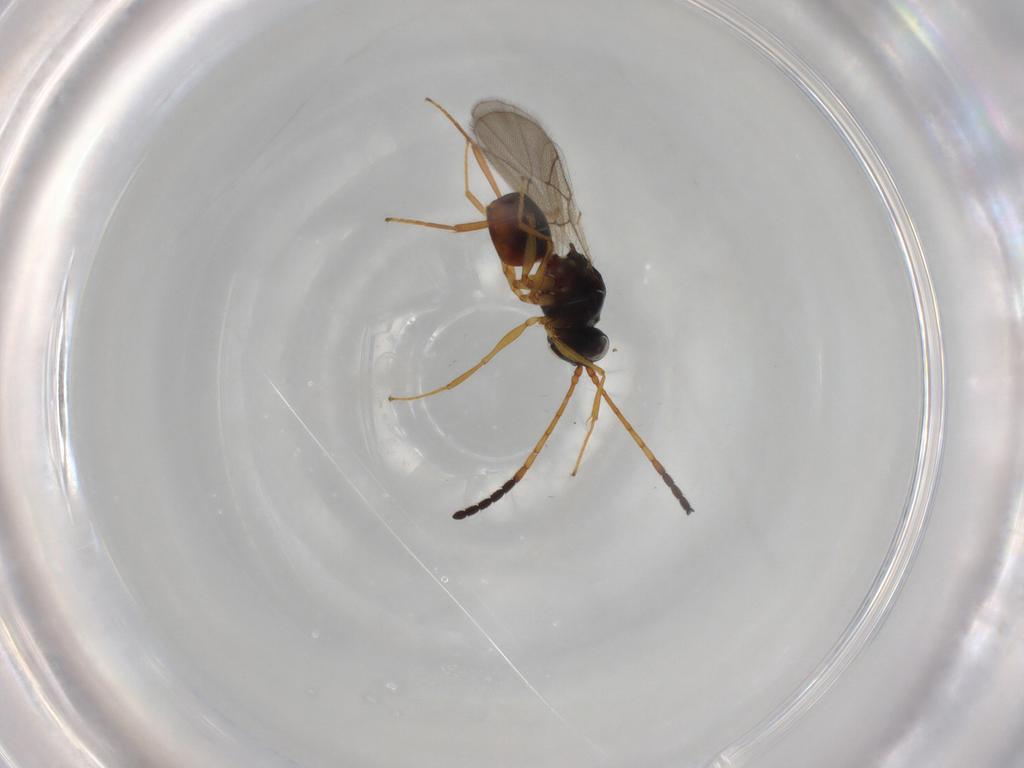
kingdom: Animalia
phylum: Arthropoda
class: Insecta
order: Hymenoptera
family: Figitidae
